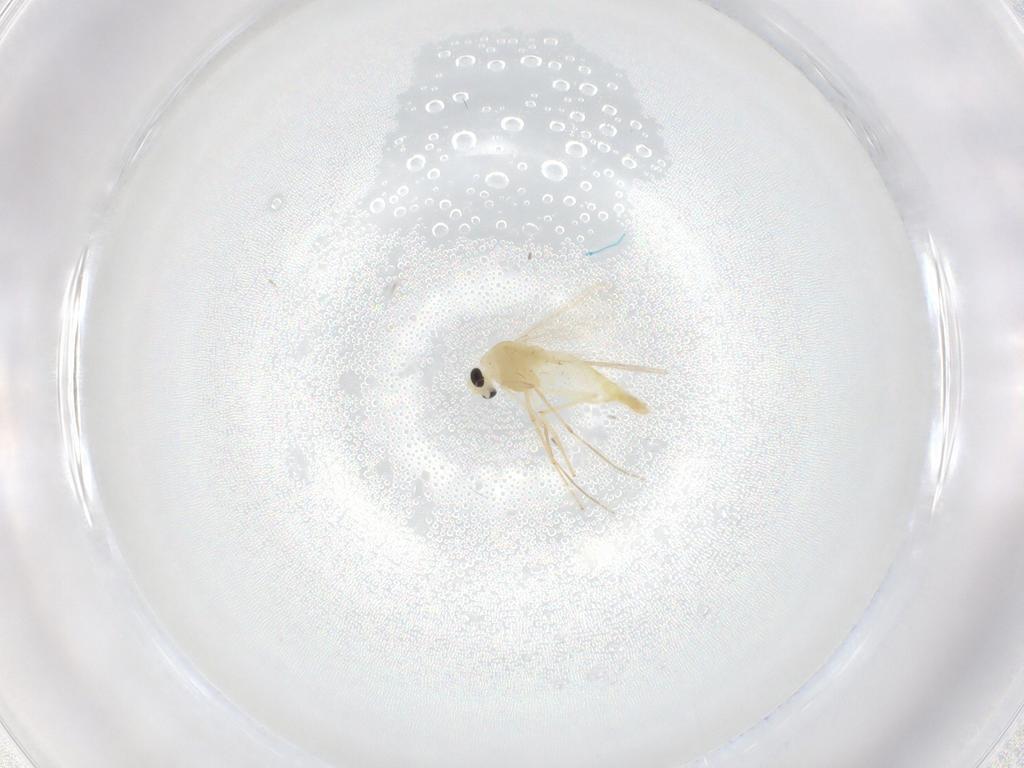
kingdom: Animalia
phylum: Arthropoda
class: Insecta
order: Diptera
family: Chironomidae
